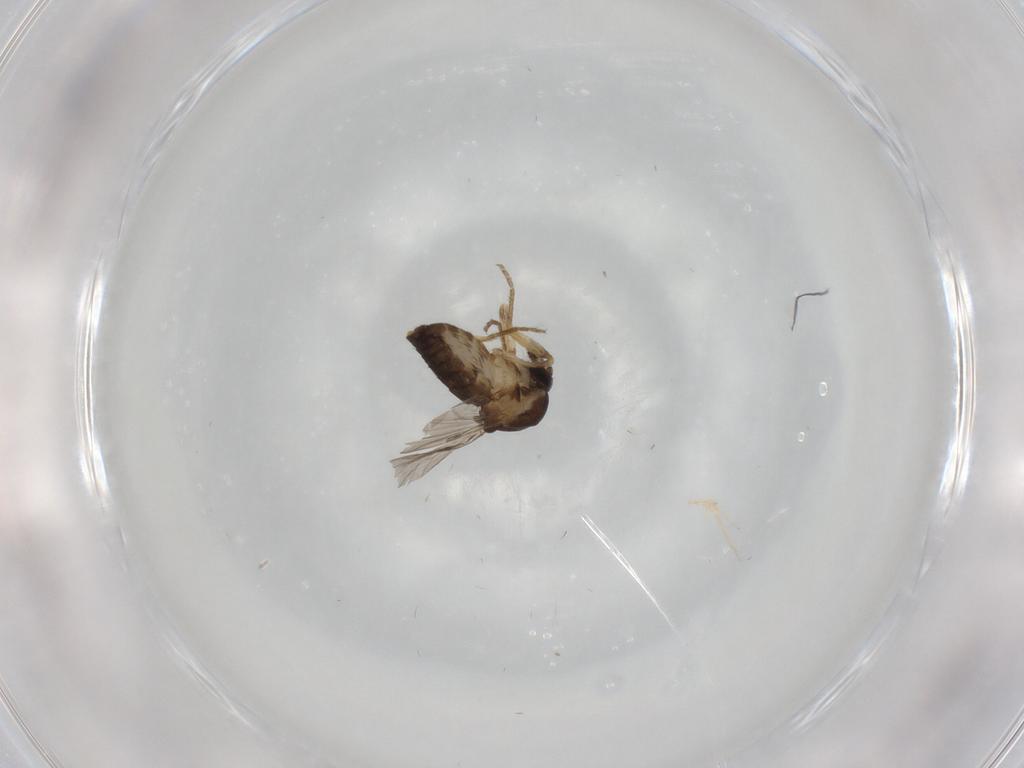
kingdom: Animalia
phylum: Arthropoda
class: Insecta
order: Diptera
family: Ceratopogonidae
